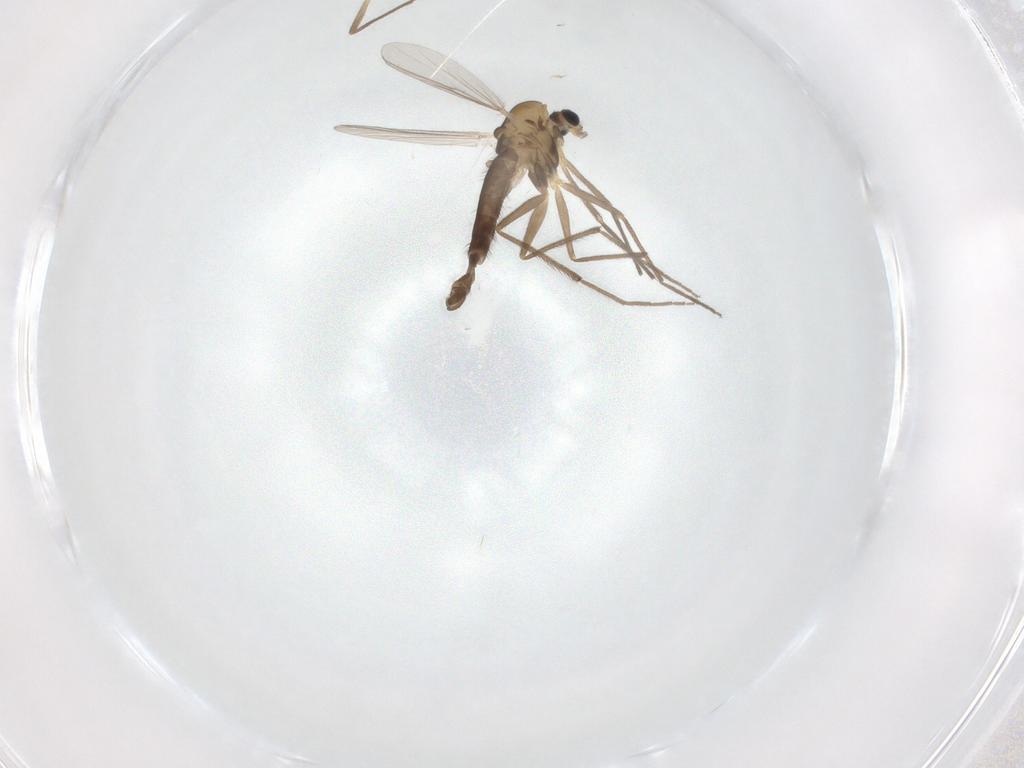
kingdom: Animalia
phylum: Arthropoda
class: Insecta
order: Diptera
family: Chironomidae
